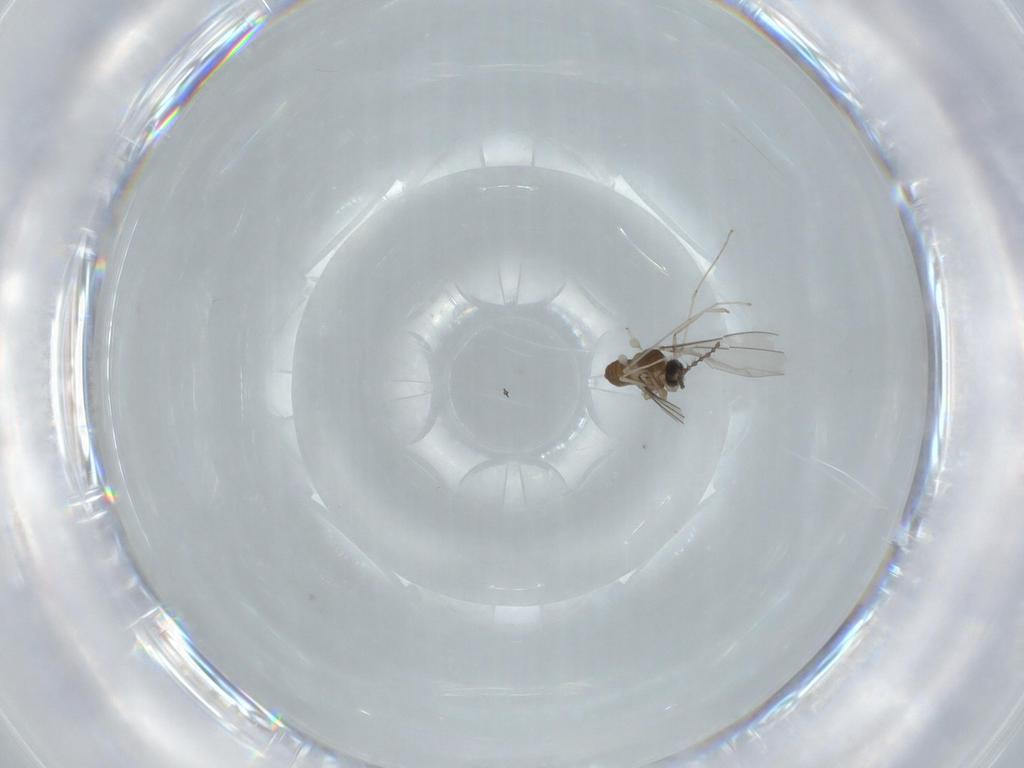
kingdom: Animalia
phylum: Arthropoda
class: Insecta
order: Diptera
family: Cecidomyiidae
